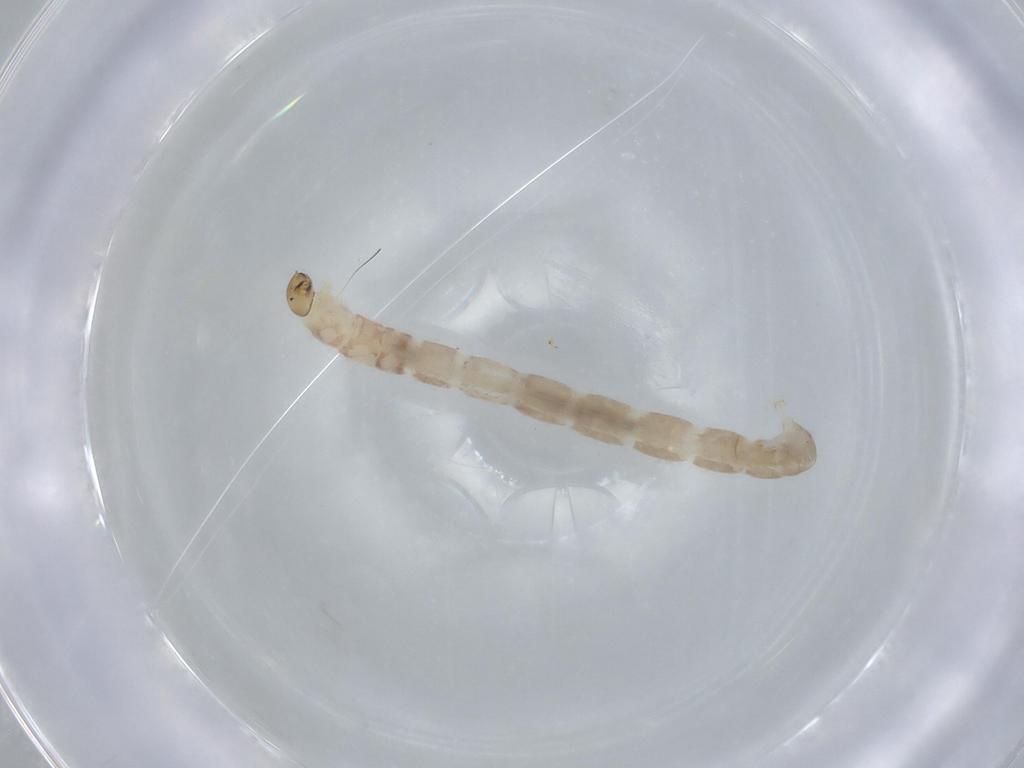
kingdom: Animalia
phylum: Arthropoda
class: Insecta
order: Diptera
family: Chironomidae
